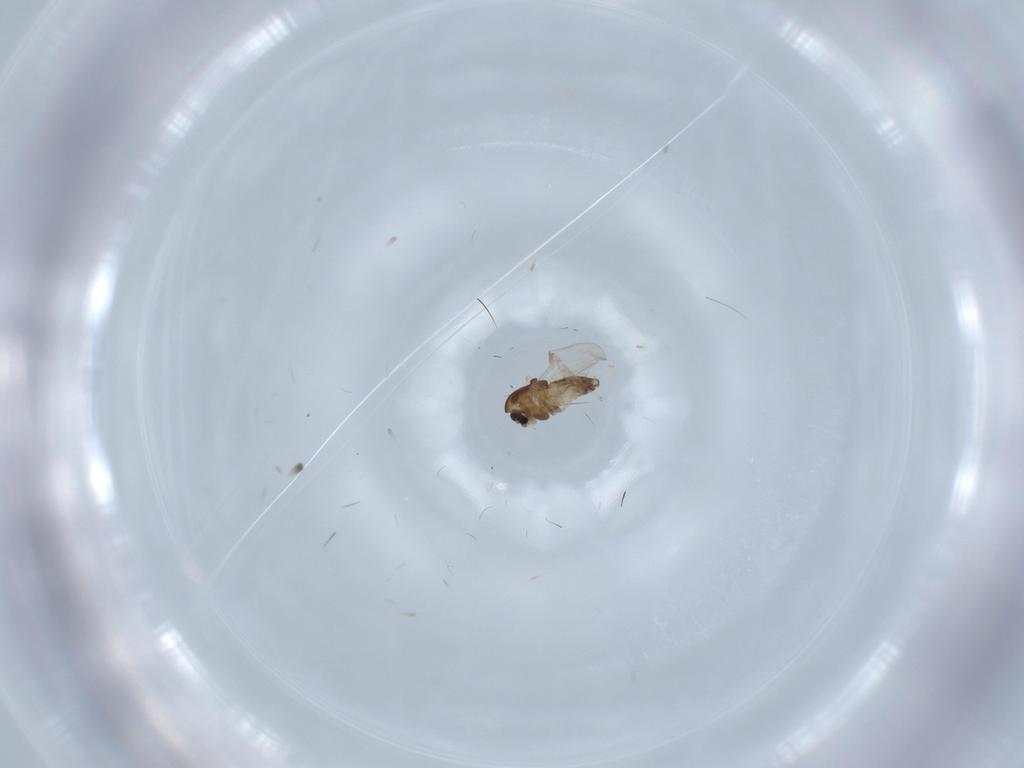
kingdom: Animalia
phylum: Arthropoda
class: Insecta
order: Diptera
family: Chironomidae
